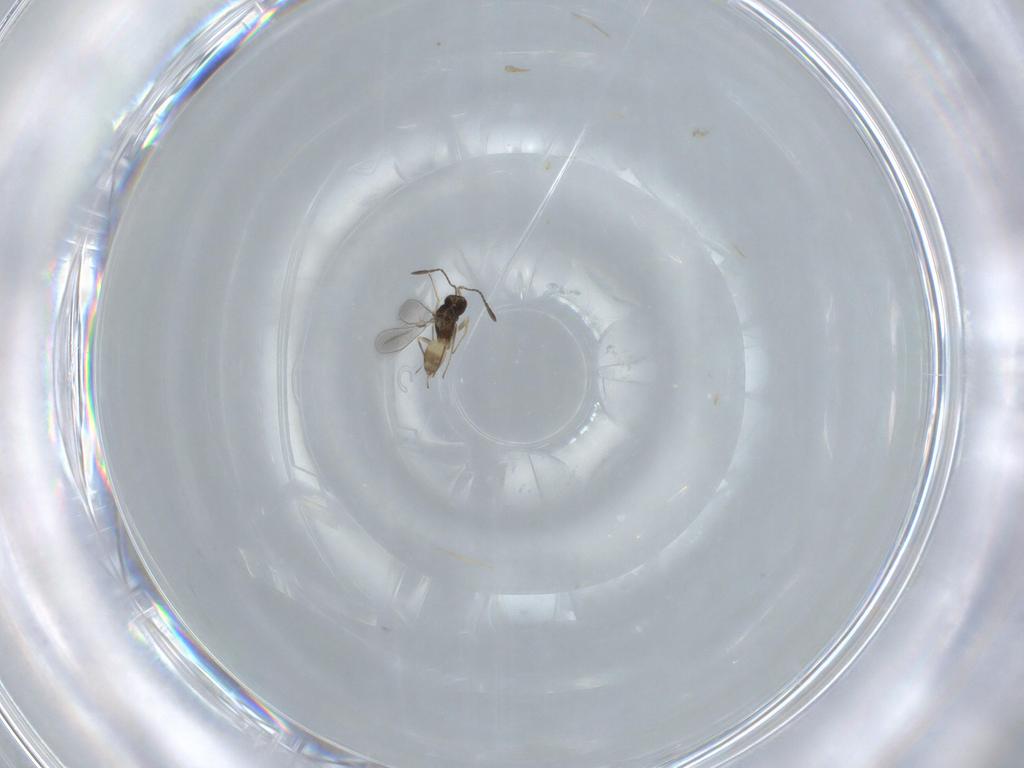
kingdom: Animalia
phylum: Arthropoda
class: Insecta
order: Hymenoptera
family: Mymaridae
